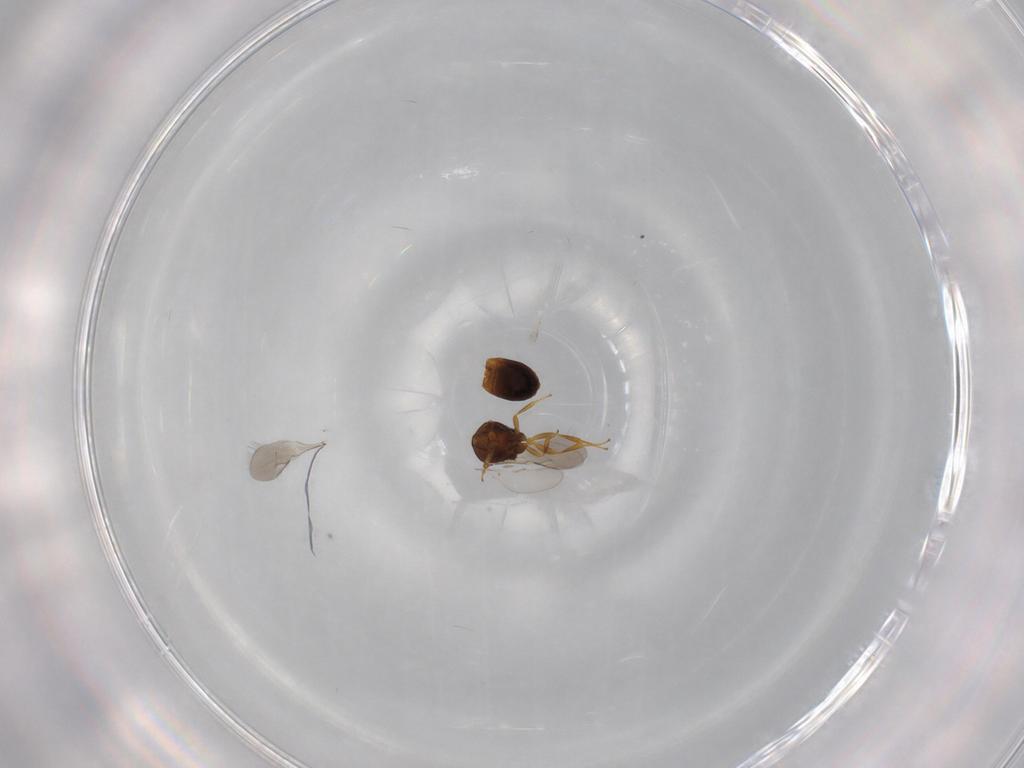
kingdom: Animalia
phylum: Arthropoda
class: Insecta
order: Hymenoptera
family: Scelionidae
